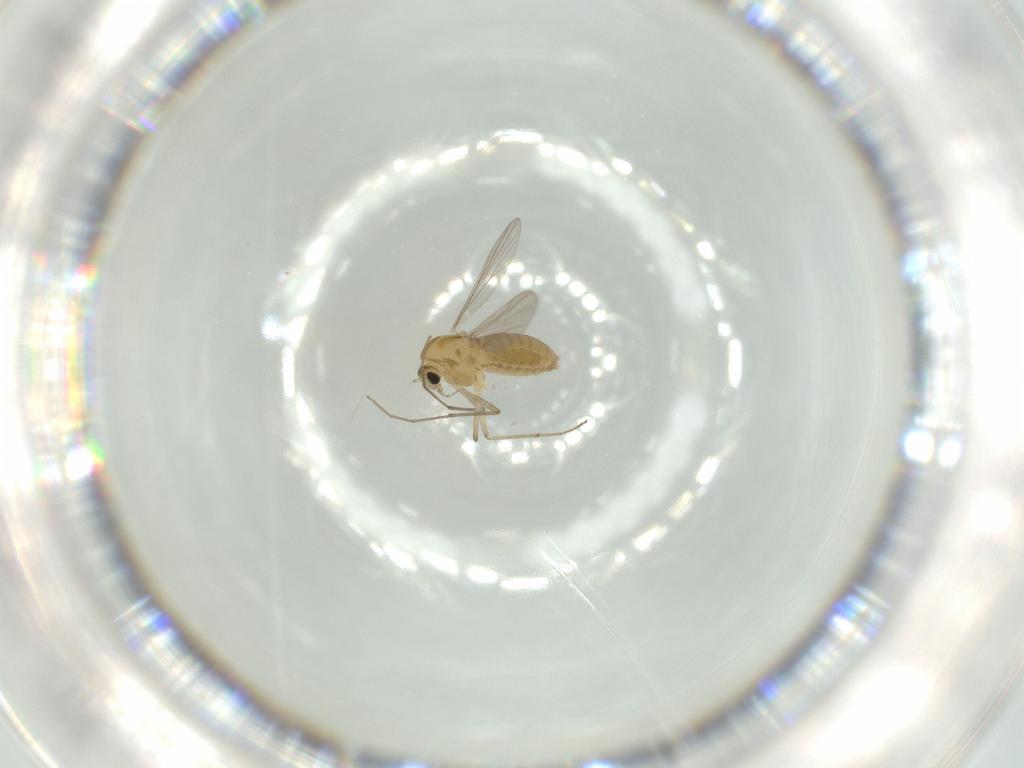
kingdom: Animalia
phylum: Arthropoda
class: Insecta
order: Diptera
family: Chironomidae
